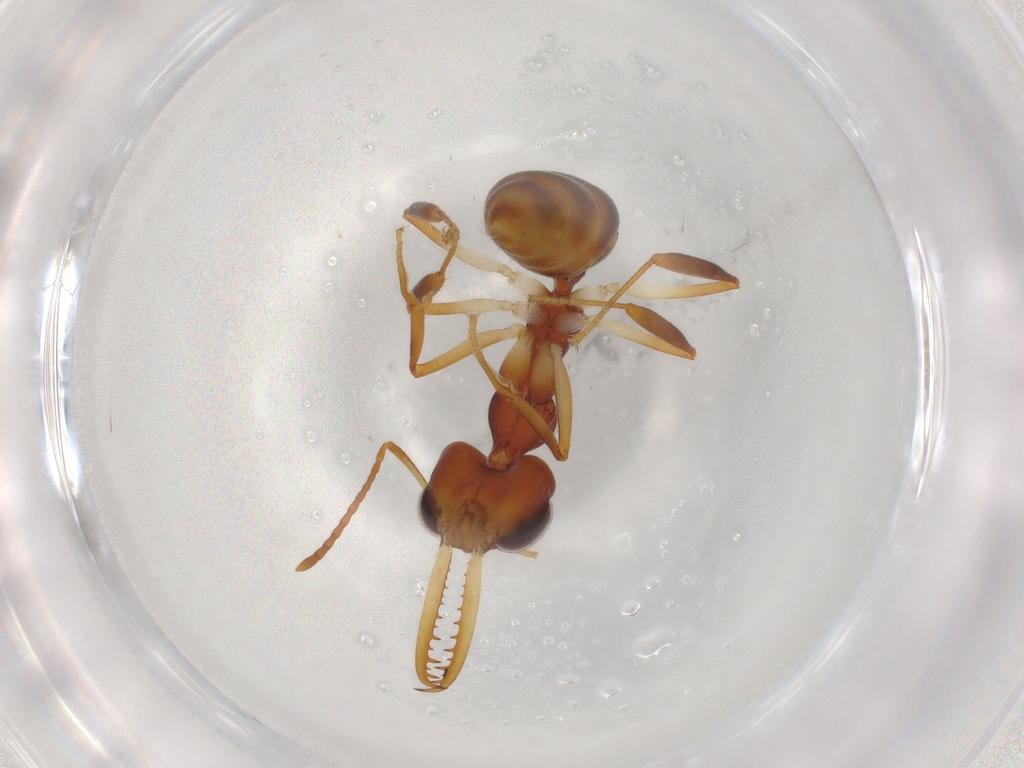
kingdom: Animalia
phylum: Arthropoda
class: Insecta
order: Hymenoptera
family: Formicidae
